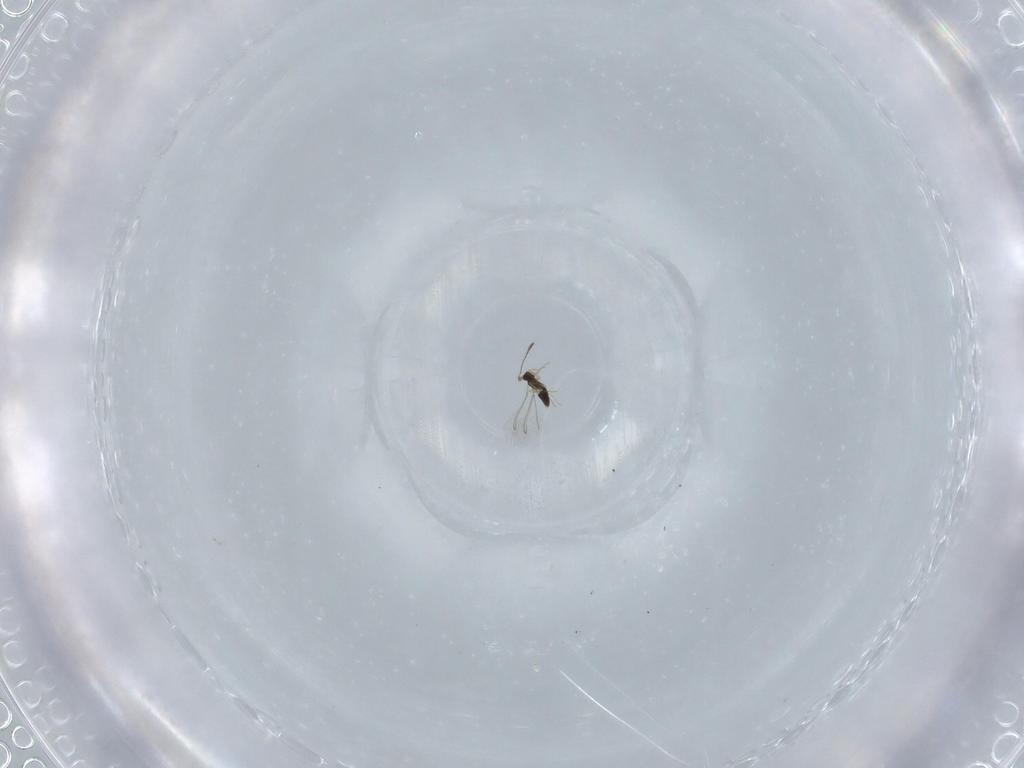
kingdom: Animalia
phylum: Arthropoda
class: Insecta
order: Hymenoptera
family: Mymaridae
